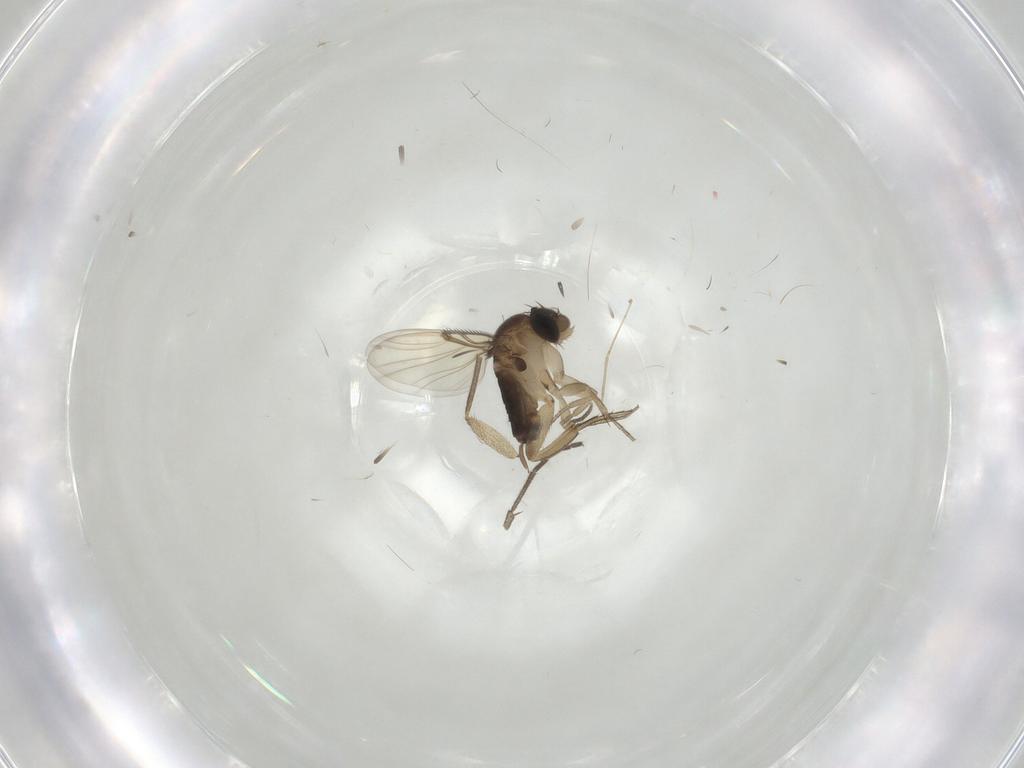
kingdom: Animalia
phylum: Arthropoda
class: Insecta
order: Diptera
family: Sciaridae
